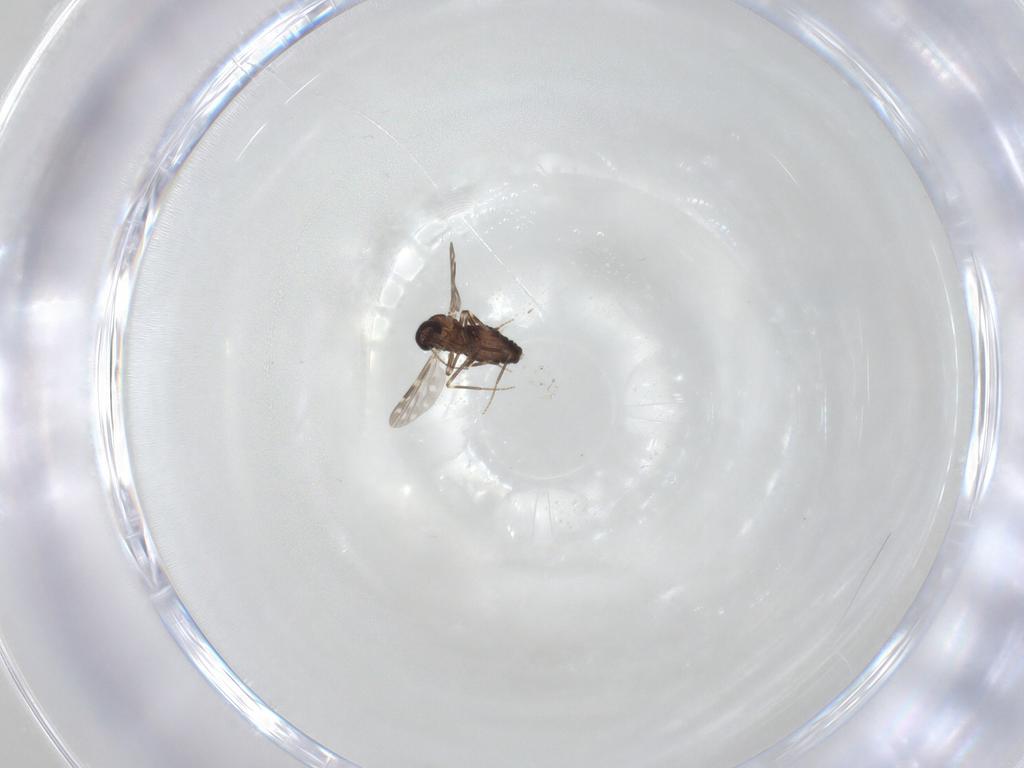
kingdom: Animalia
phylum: Arthropoda
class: Insecta
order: Diptera
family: Ceratopogonidae
